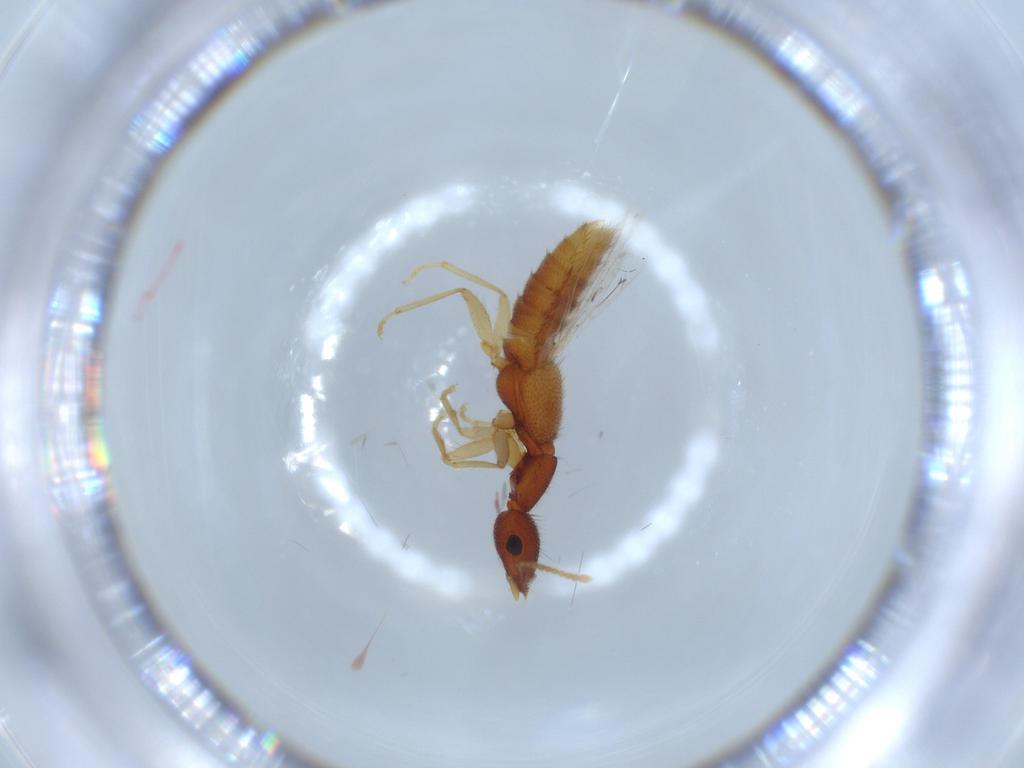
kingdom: Animalia
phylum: Arthropoda
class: Insecta
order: Coleoptera
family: Staphylinidae
